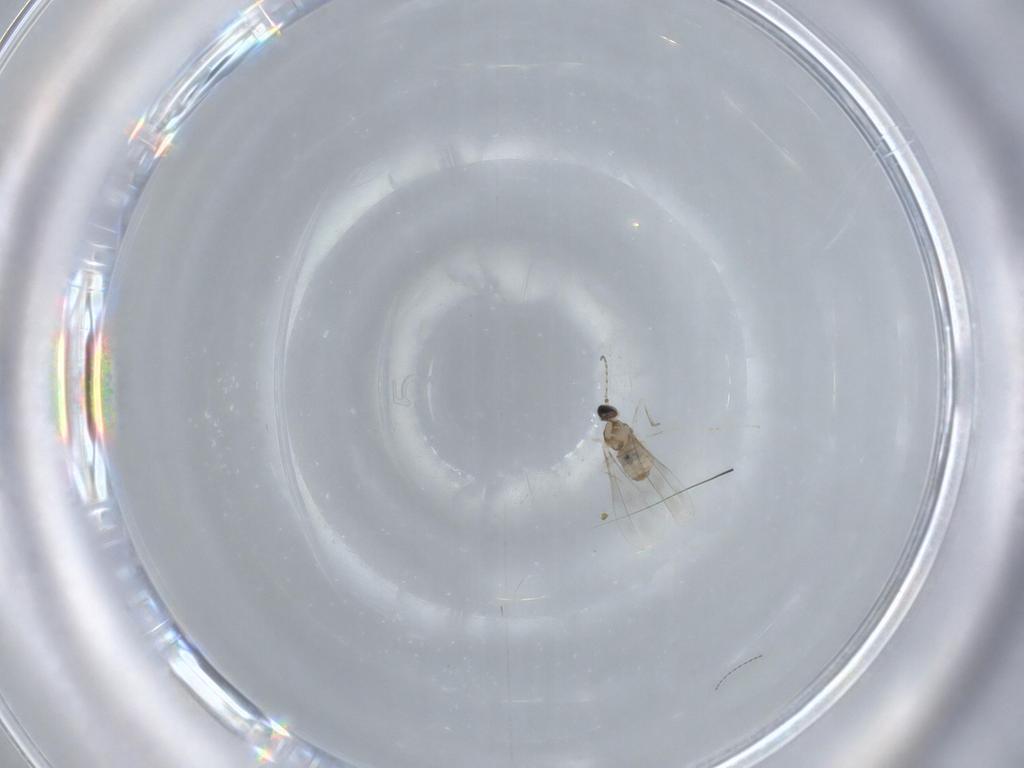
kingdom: Animalia
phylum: Arthropoda
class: Insecta
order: Diptera
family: Cecidomyiidae
